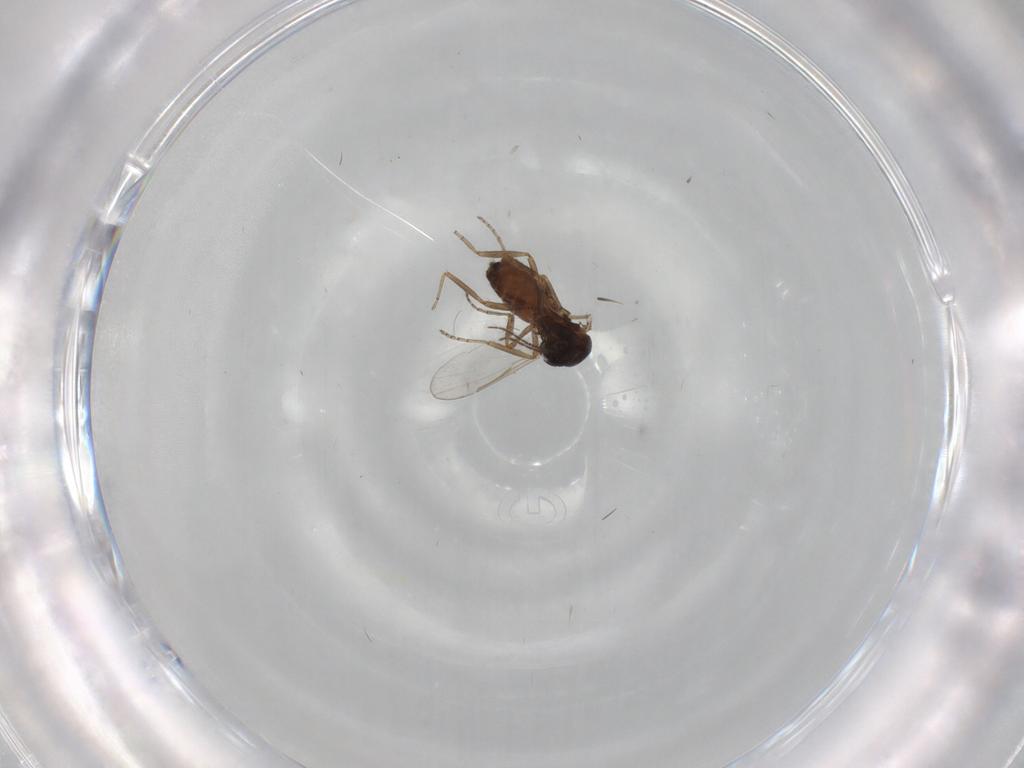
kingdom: Animalia
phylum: Arthropoda
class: Insecta
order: Diptera
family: Ceratopogonidae
